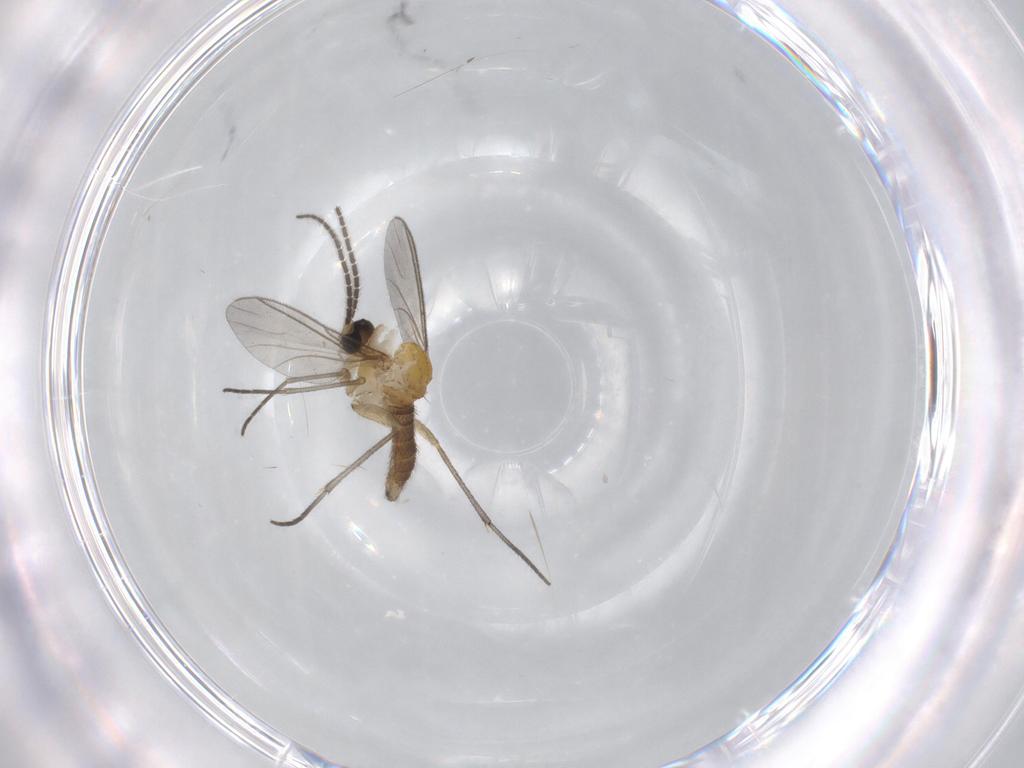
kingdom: Animalia
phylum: Arthropoda
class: Insecta
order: Diptera
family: Sciaridae
